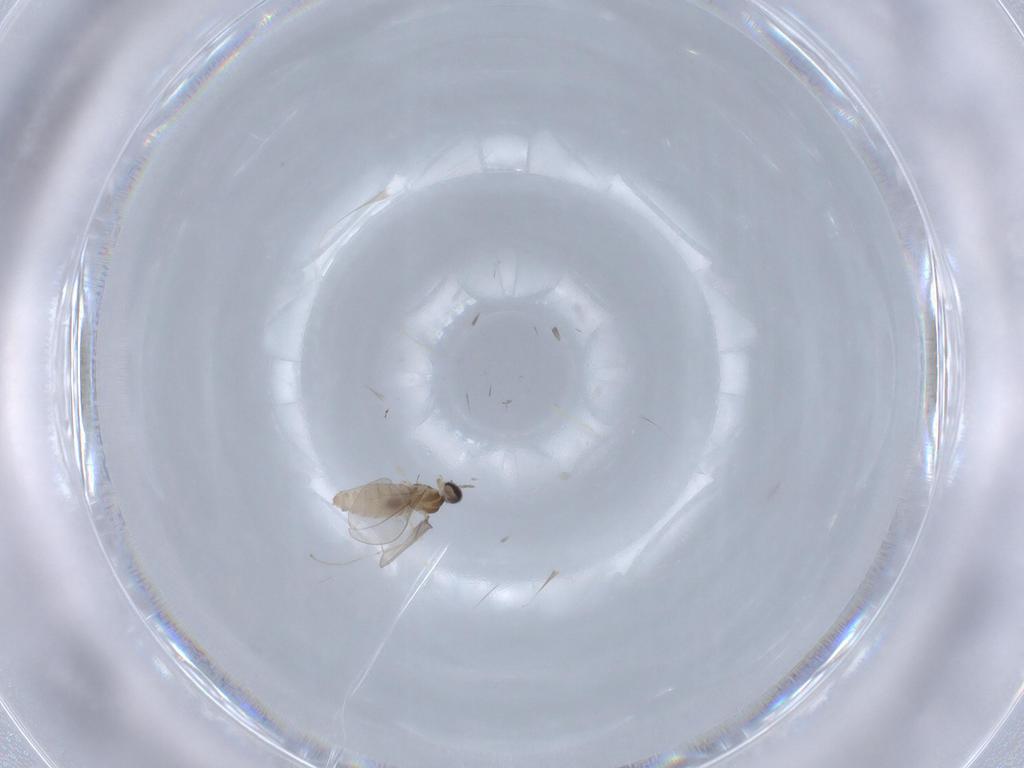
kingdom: Animalia
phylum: Arthropoda
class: Insecta
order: Diptera
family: Cecidomyiidae
